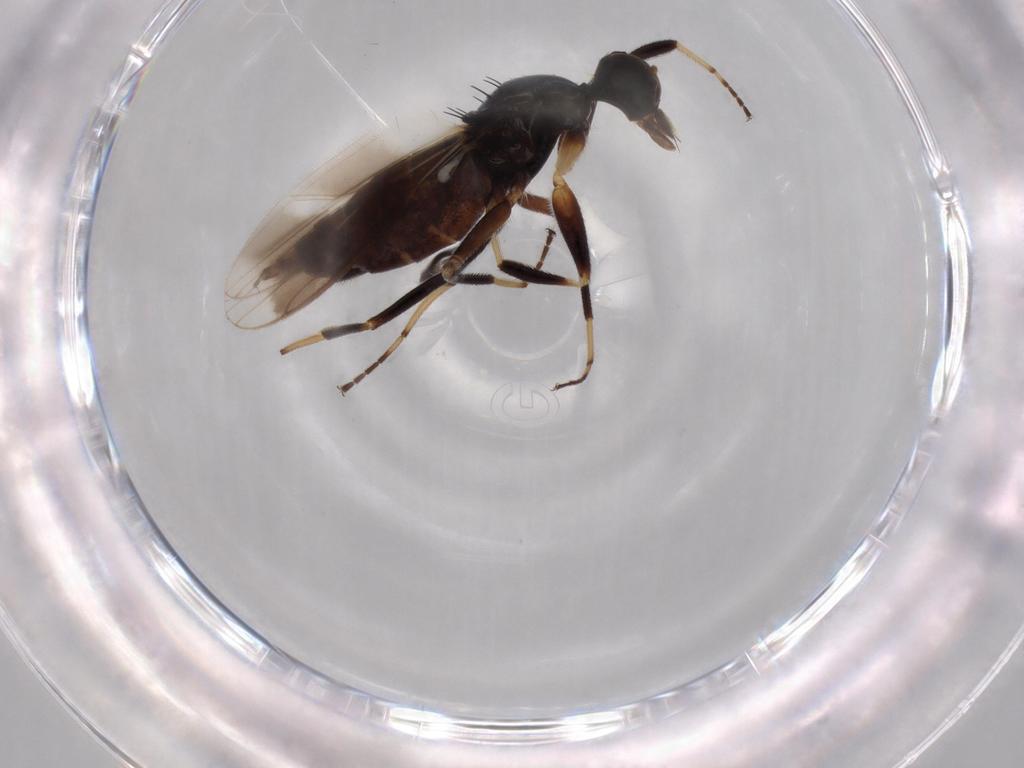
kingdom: Animalia
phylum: Arthropoda
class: Insecta
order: Diptera
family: Hybotidae
